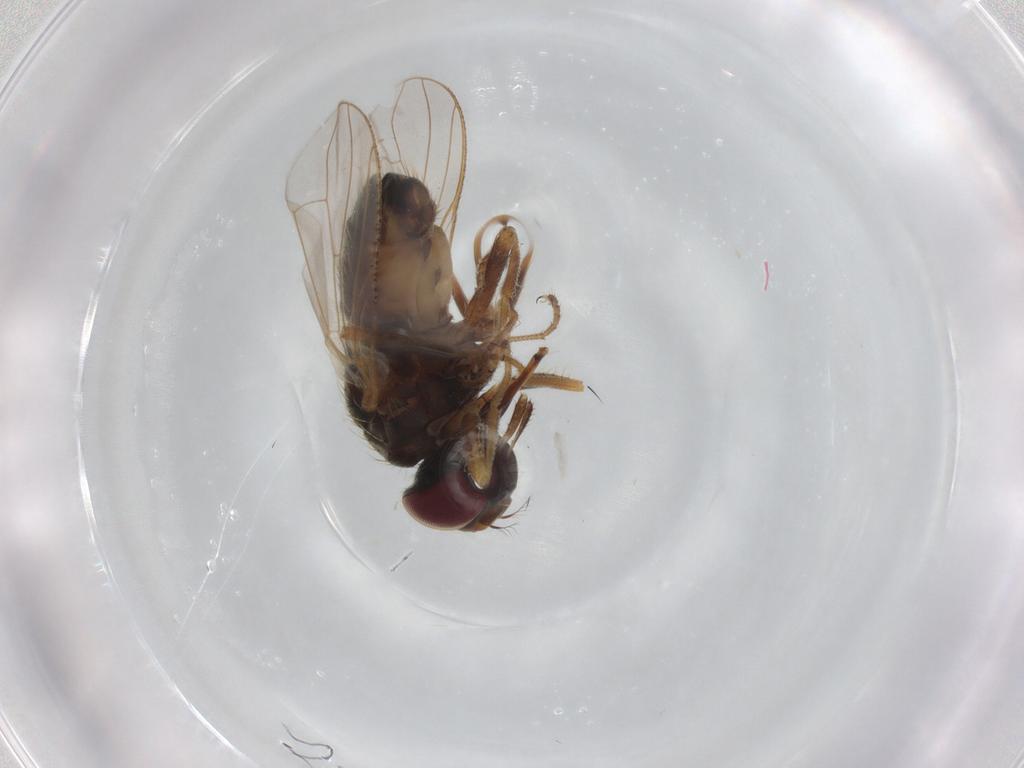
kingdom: Animalia
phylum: Arthropoda
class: Insecta
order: Diptera
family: Muscidae
